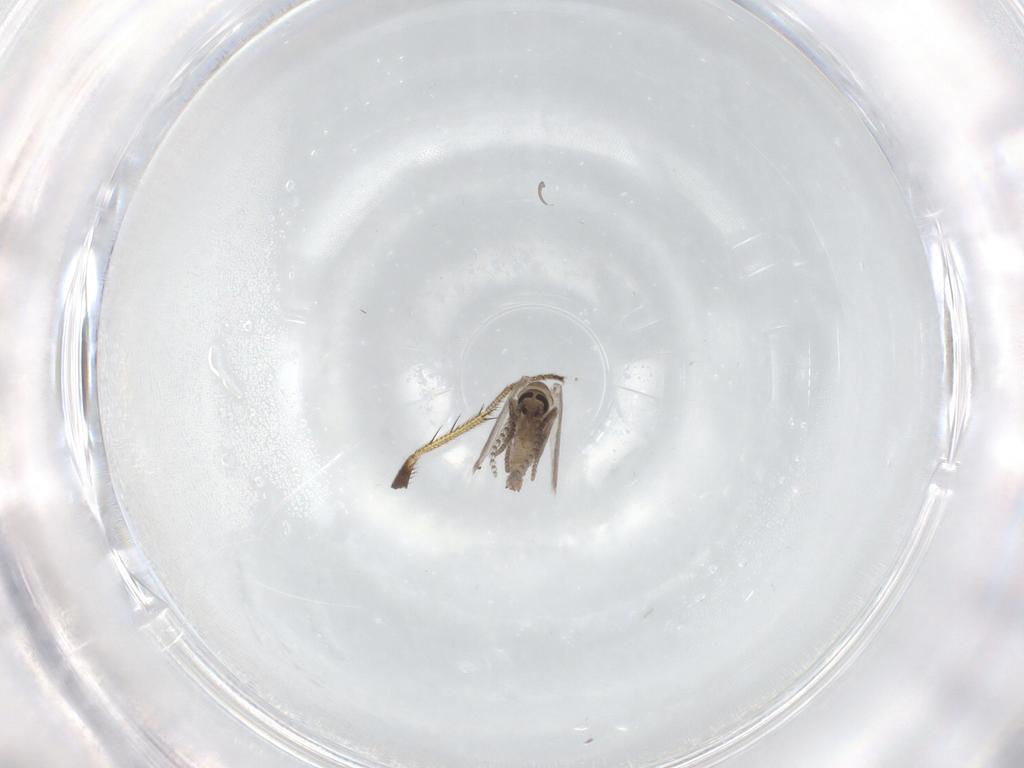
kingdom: Animalia
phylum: Arthropoda
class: Insecta
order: Diptera
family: Psychodidae
